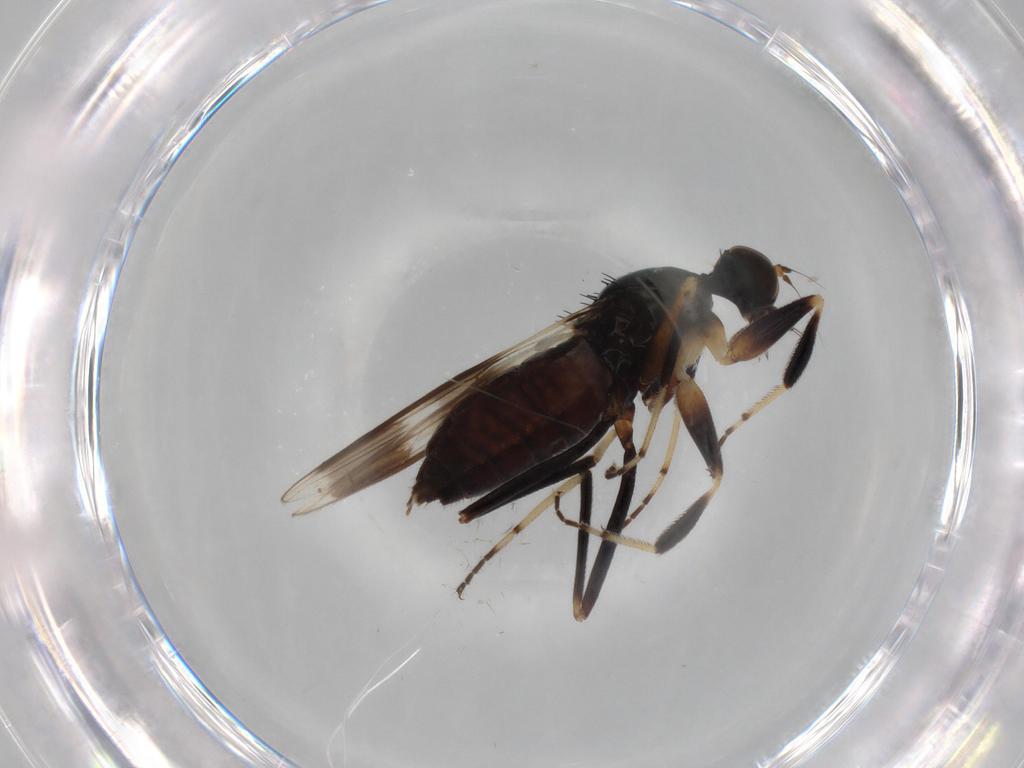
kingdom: Animalia
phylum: Arthropoda
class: Insecta
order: Diptera
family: Hybotidae
